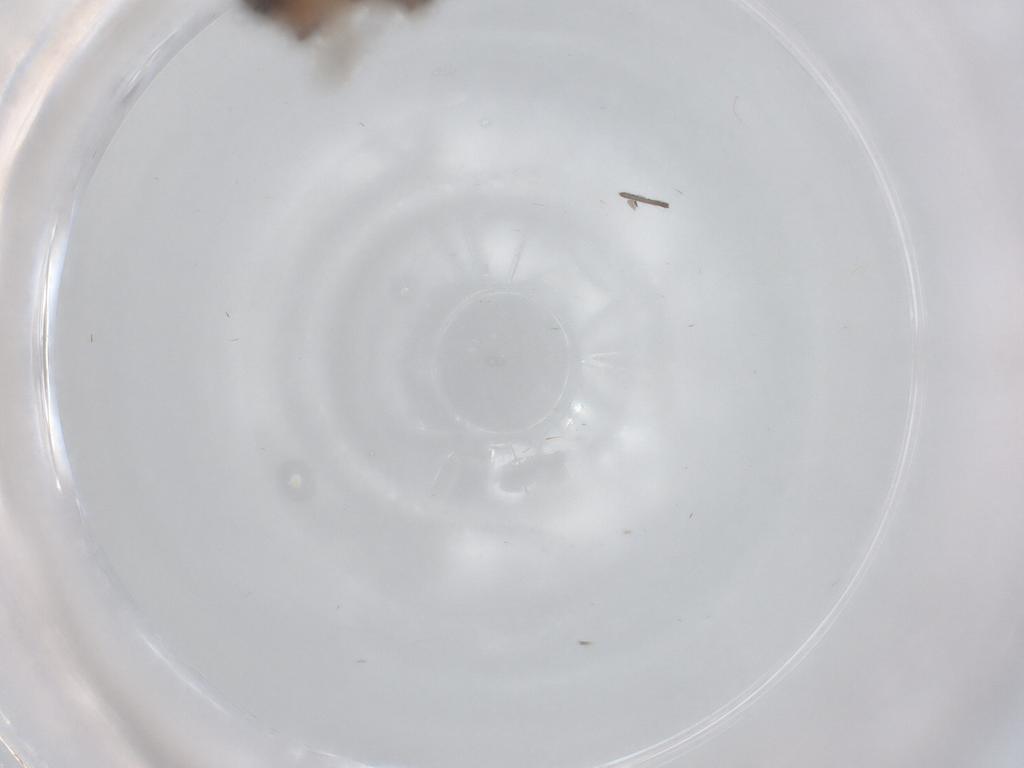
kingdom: Animalia
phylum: Arthropoda
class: Insecta
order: Diptera
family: Sciaridae
